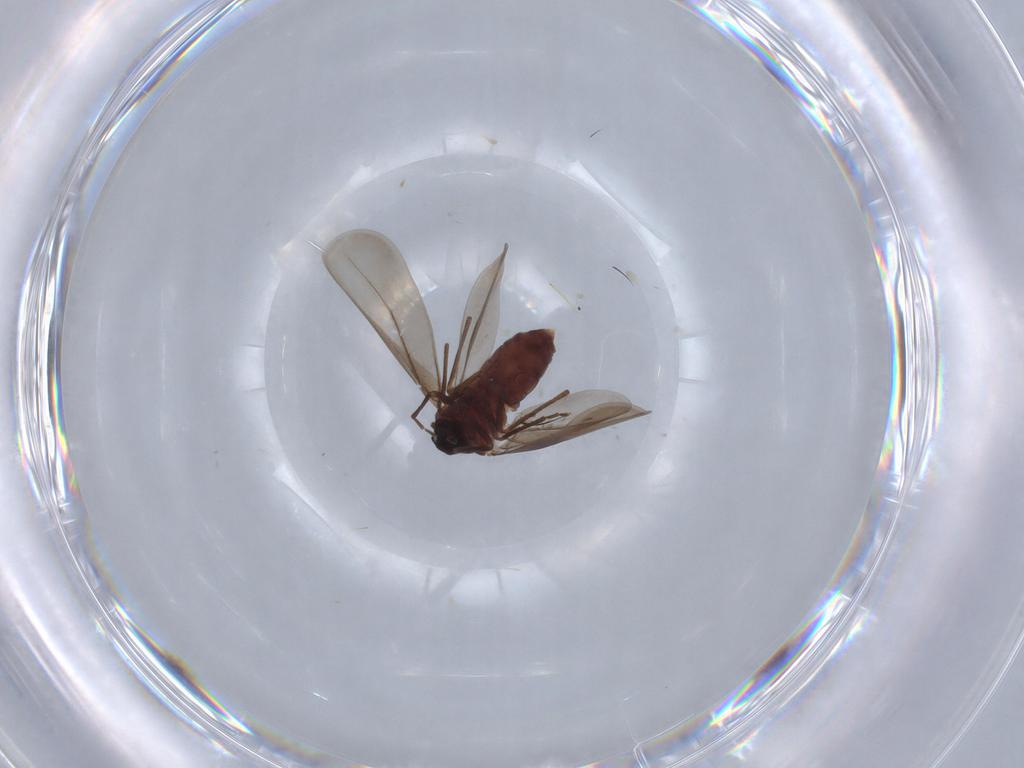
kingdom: Animalia
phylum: Arthropoda
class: Insecta
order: Hemiptera
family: Aleyrodidae
